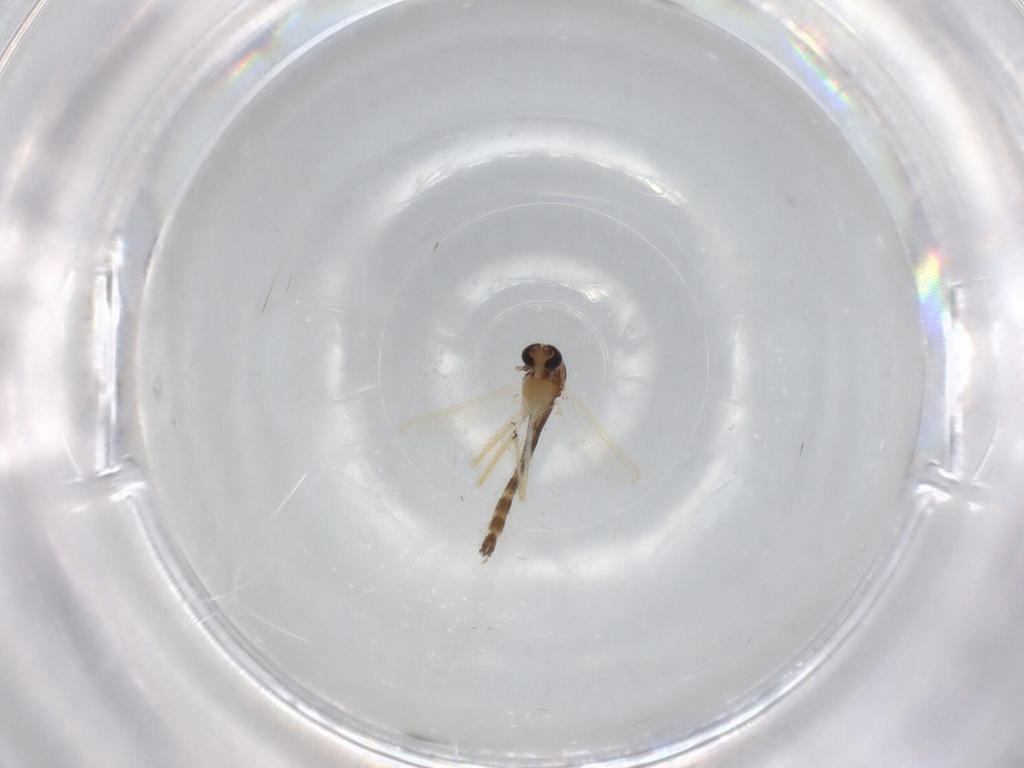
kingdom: Animalia
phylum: Arthropoda
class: Insecta
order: Diptera
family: Chironomidae
